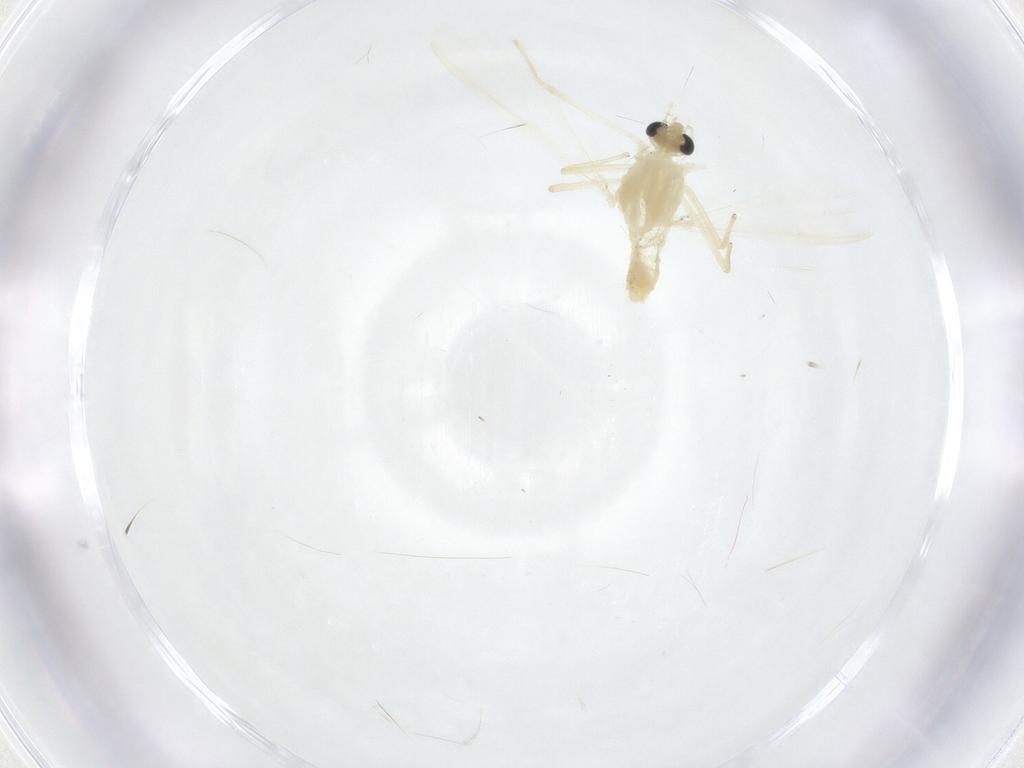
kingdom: Animalia
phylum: Arthropoda
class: Insecta
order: Diptera
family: Chironomidae
